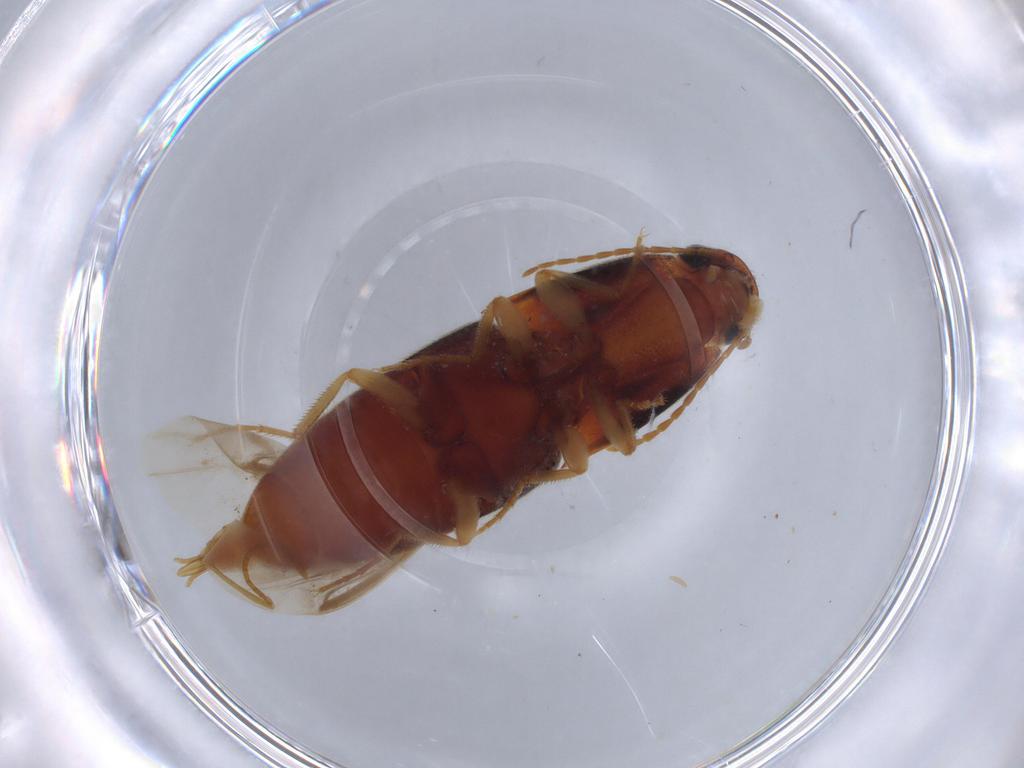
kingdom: Animalia
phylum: Arthropoda
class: Insecta
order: Coleoptera
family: Elateridae
